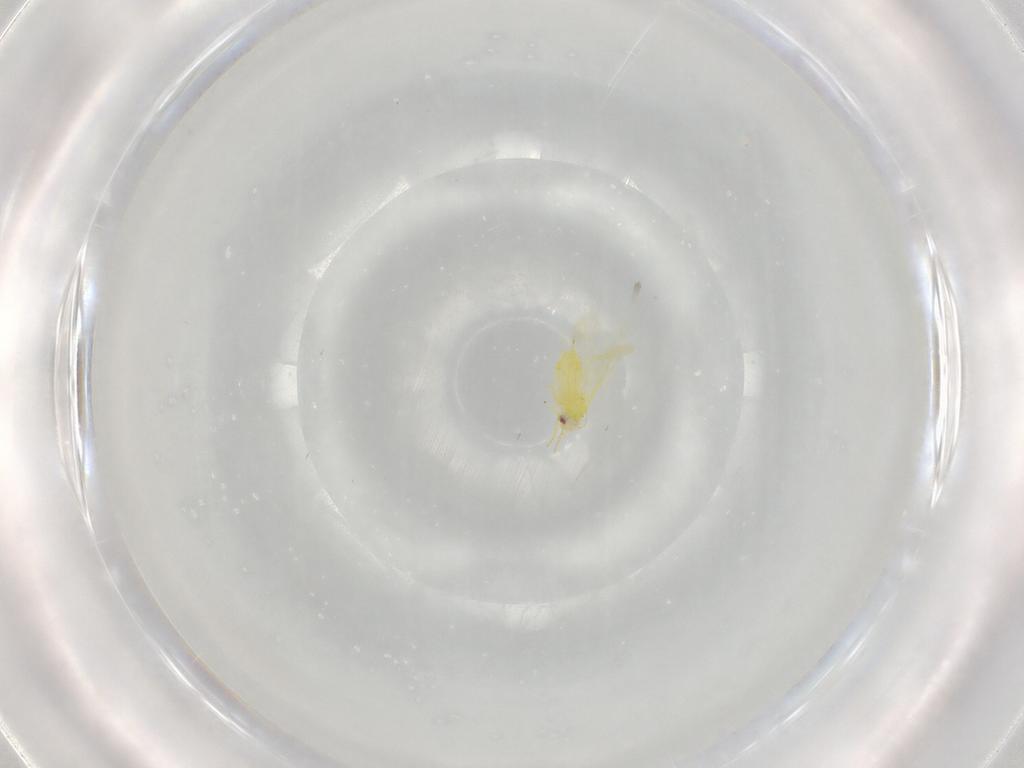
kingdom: Animalia
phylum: Arthropoda
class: Insecta
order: Hemiptera
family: Aleyrodidae
